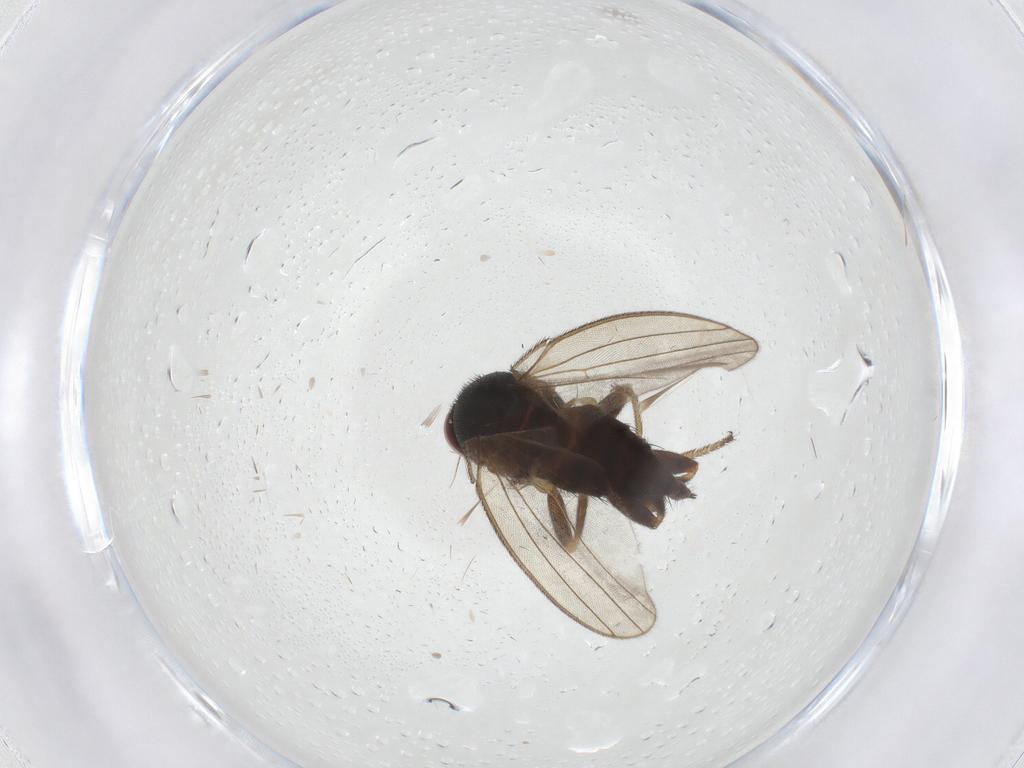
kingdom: Animalia
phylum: Arthropoda
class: Insecta
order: Diptera
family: Milichiidae
